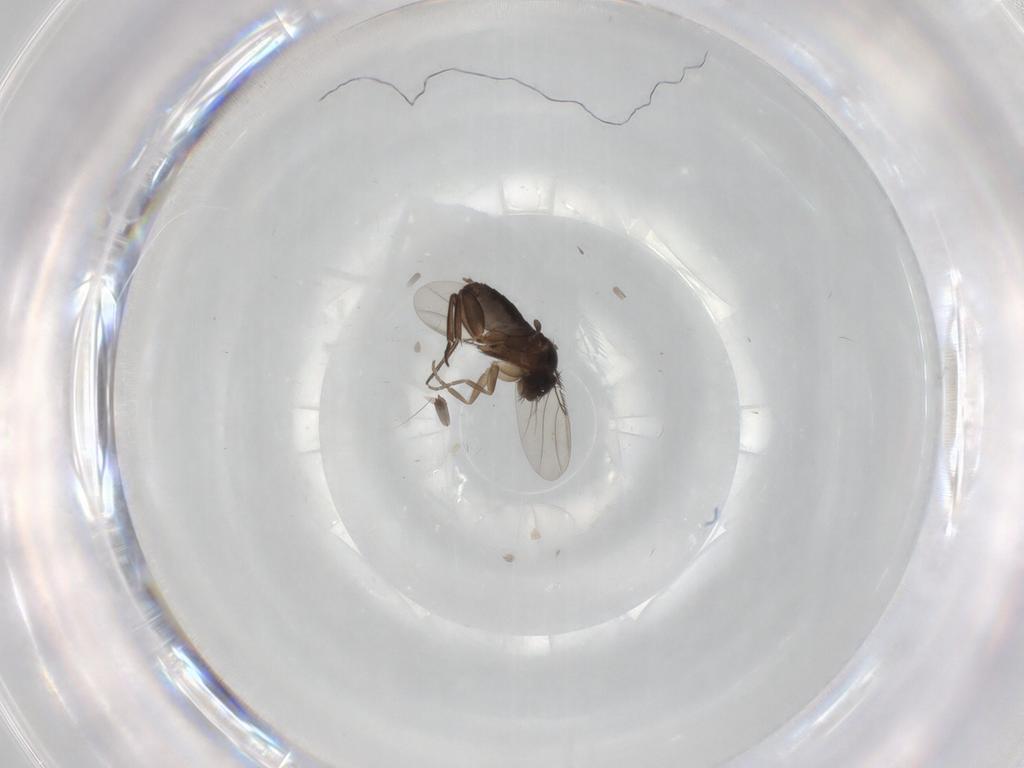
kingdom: Animalia
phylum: Arthropoda
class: Insecta
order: Diptera
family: Phoridae
